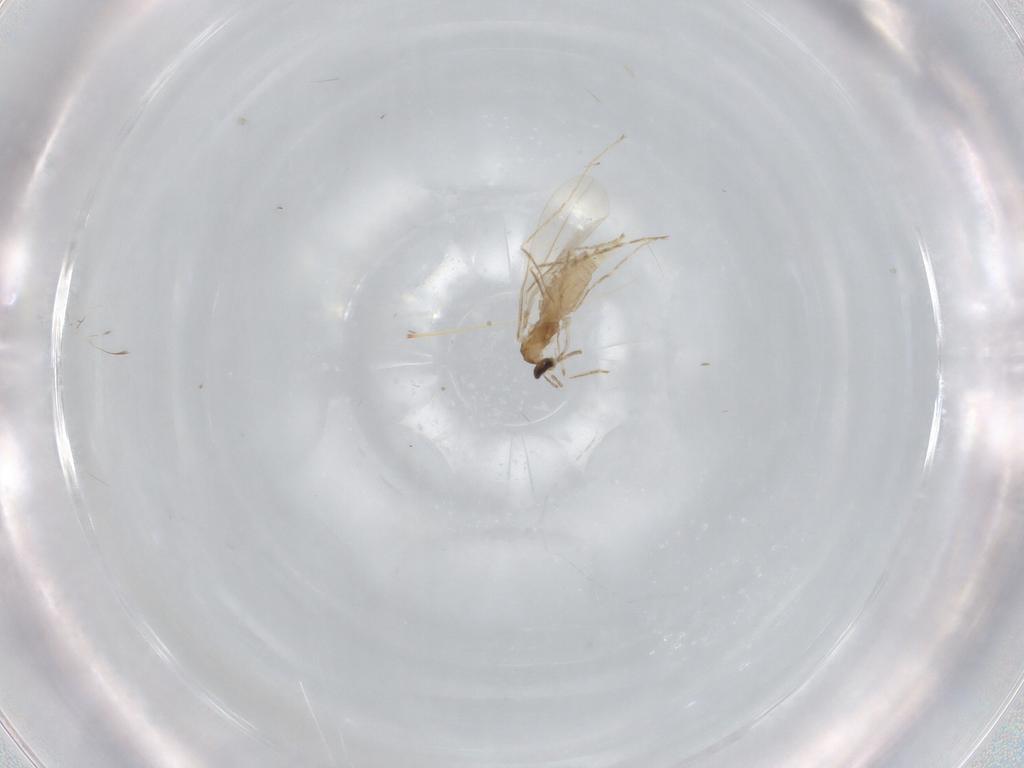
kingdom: Animalia
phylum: Arthropoda
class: Insecta
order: Diptera
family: Cecidomyiidae
